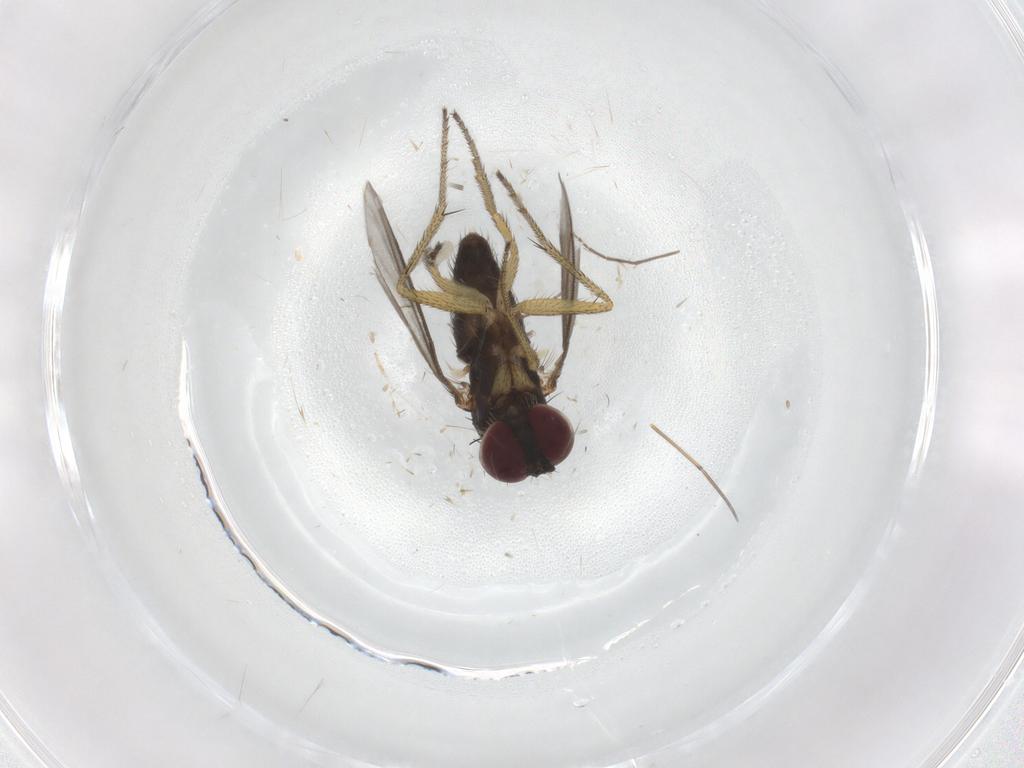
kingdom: Animalia
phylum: Arthropoda
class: Insecta
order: Diptera
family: Chironomidae
